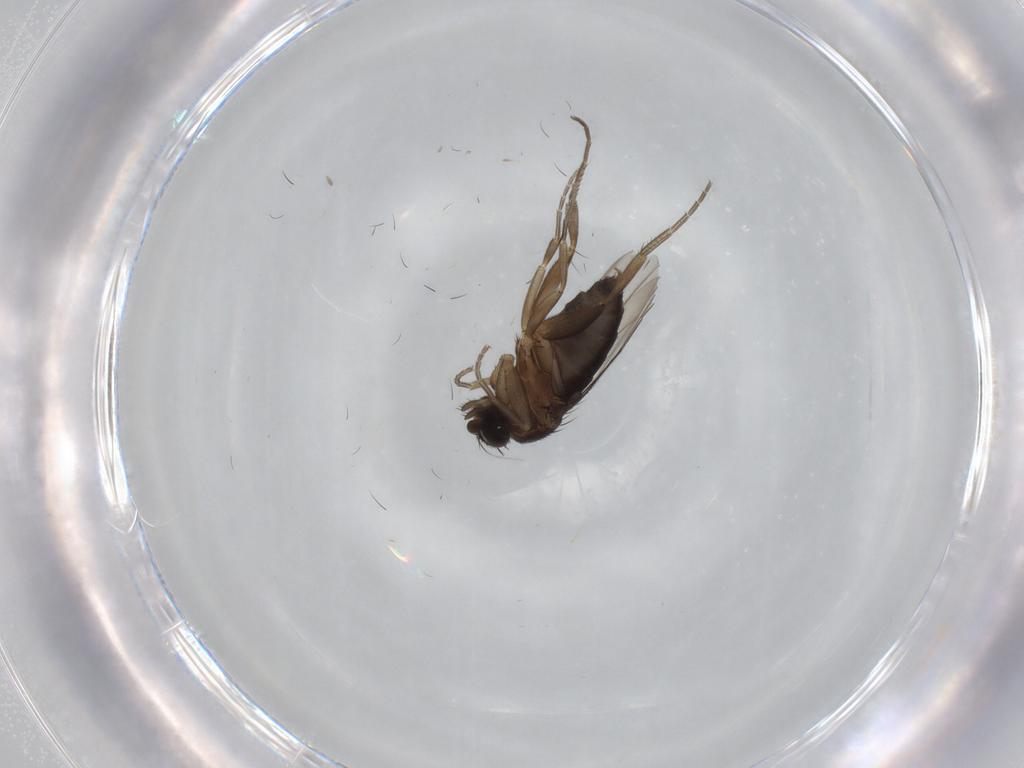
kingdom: Animalia
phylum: Arthropoda
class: Insecta
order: Diptera
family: Phoridae
